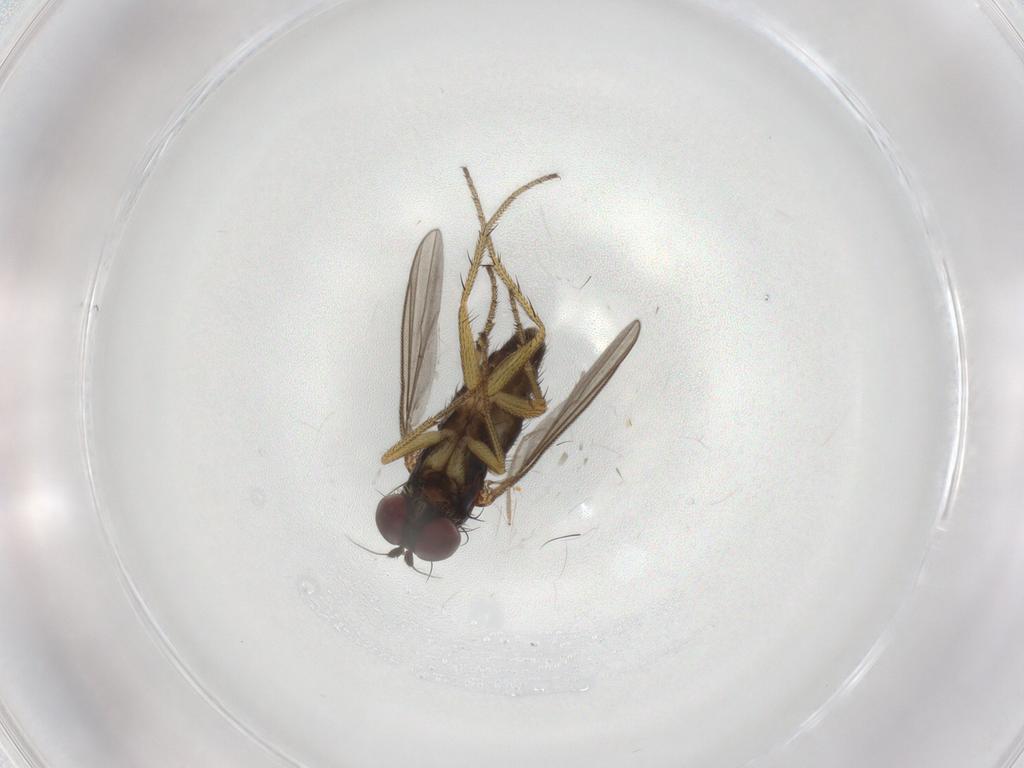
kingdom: Animalia
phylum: Arthropoda
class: Insecta
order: Diptera
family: Dolichopodidae
